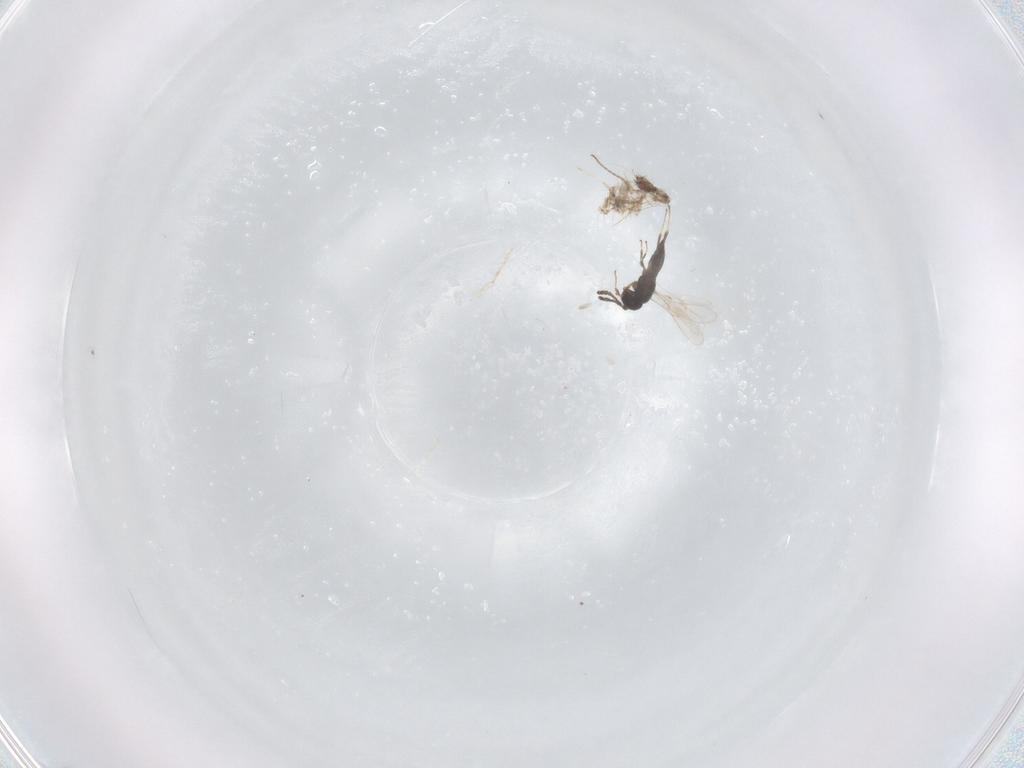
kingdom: Animalia
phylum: Arthropoda
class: Insecta
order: Hymenoptera
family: Scelionidae
